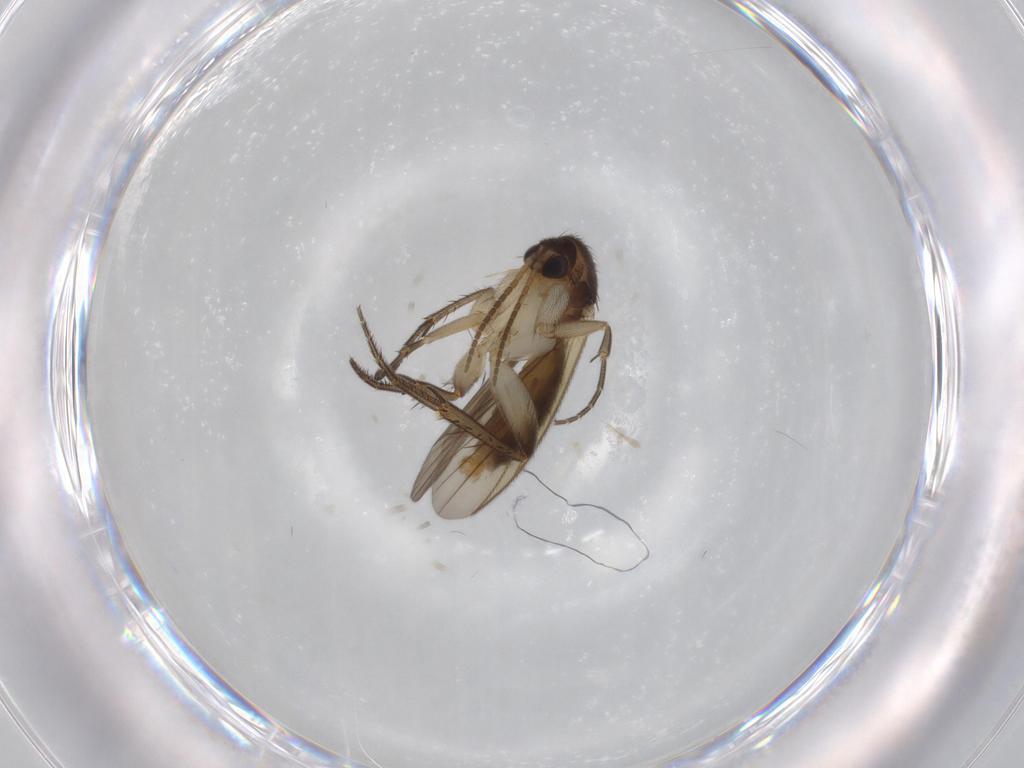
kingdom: Animalia
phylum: Arthropoda
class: Insecta
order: Diptera
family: Mycetophilidae
